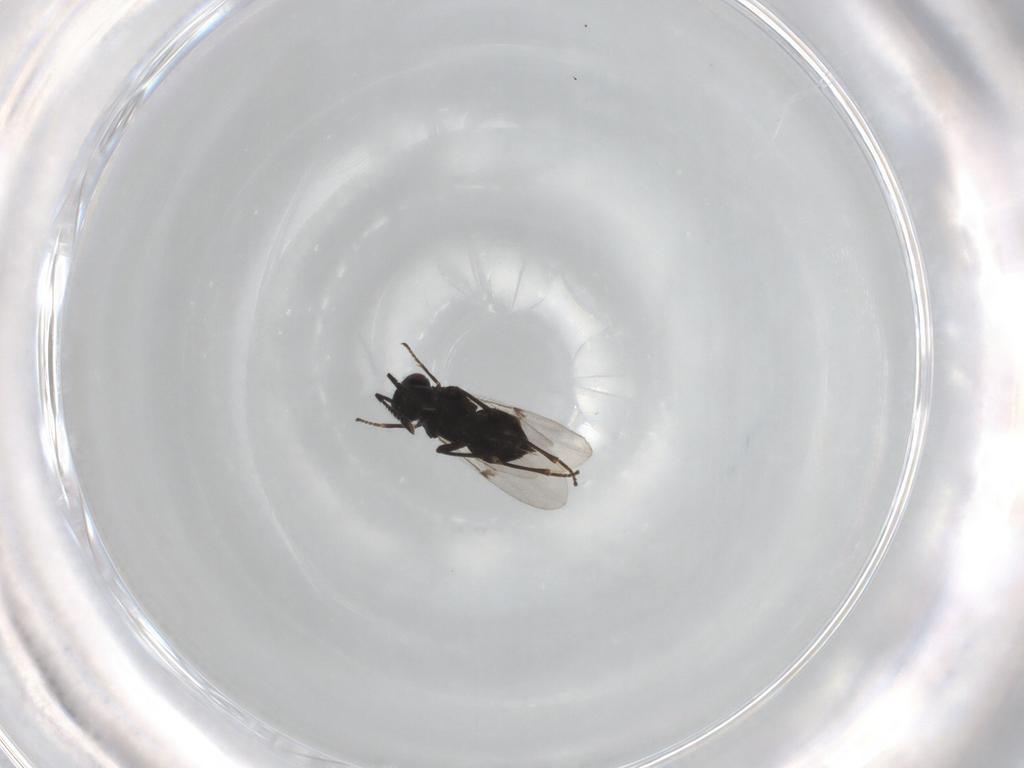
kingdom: Animalia
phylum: Arthropoda
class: Insecta
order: Hymenoptera
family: Encyrtidae
